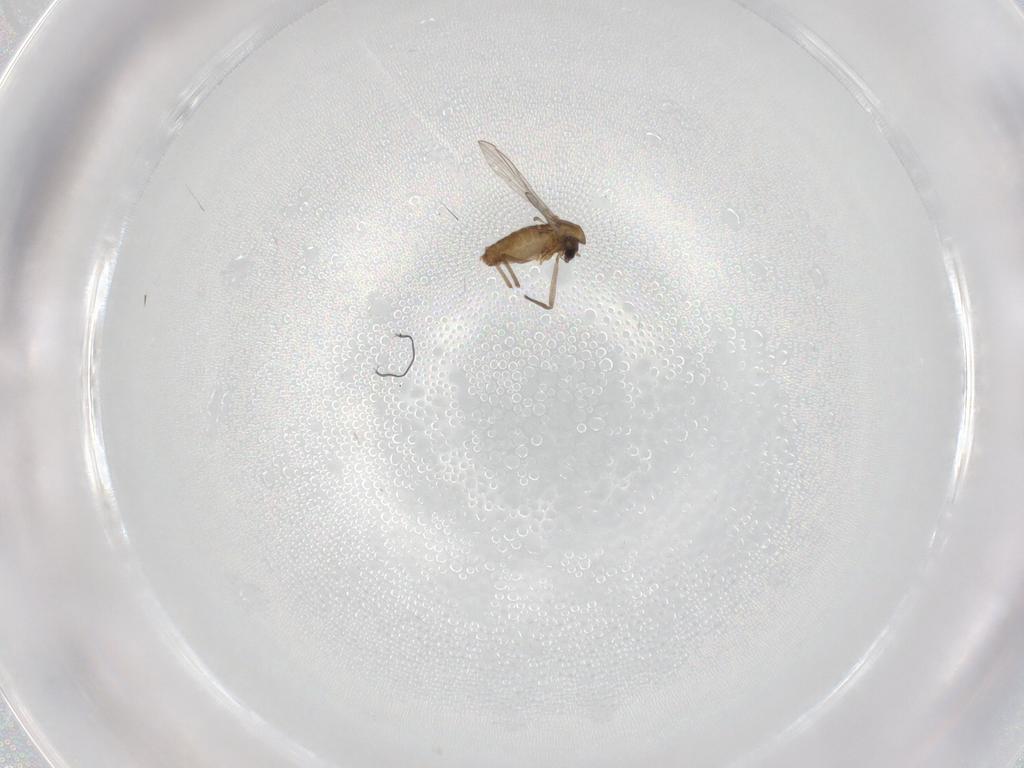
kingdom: Animalia
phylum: Arthropoda
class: Insecta
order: Diptera
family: Chironomidae
